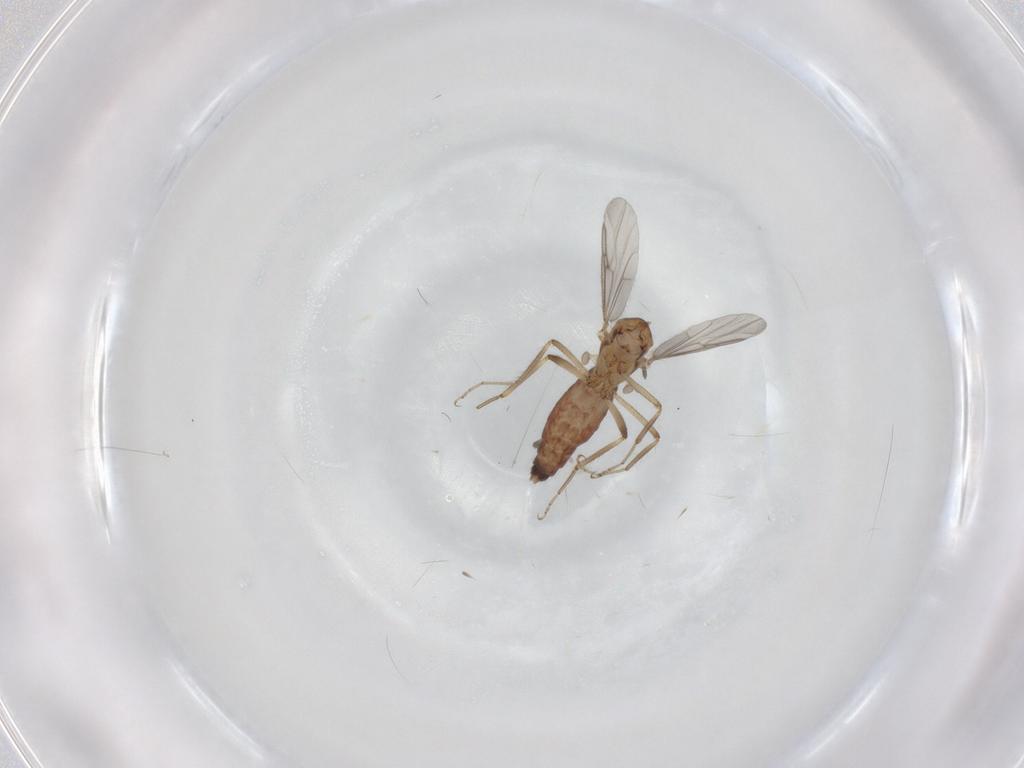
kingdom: Animalia
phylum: Arthropoda
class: Insecta
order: Diptera
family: Ceratopogonidae
